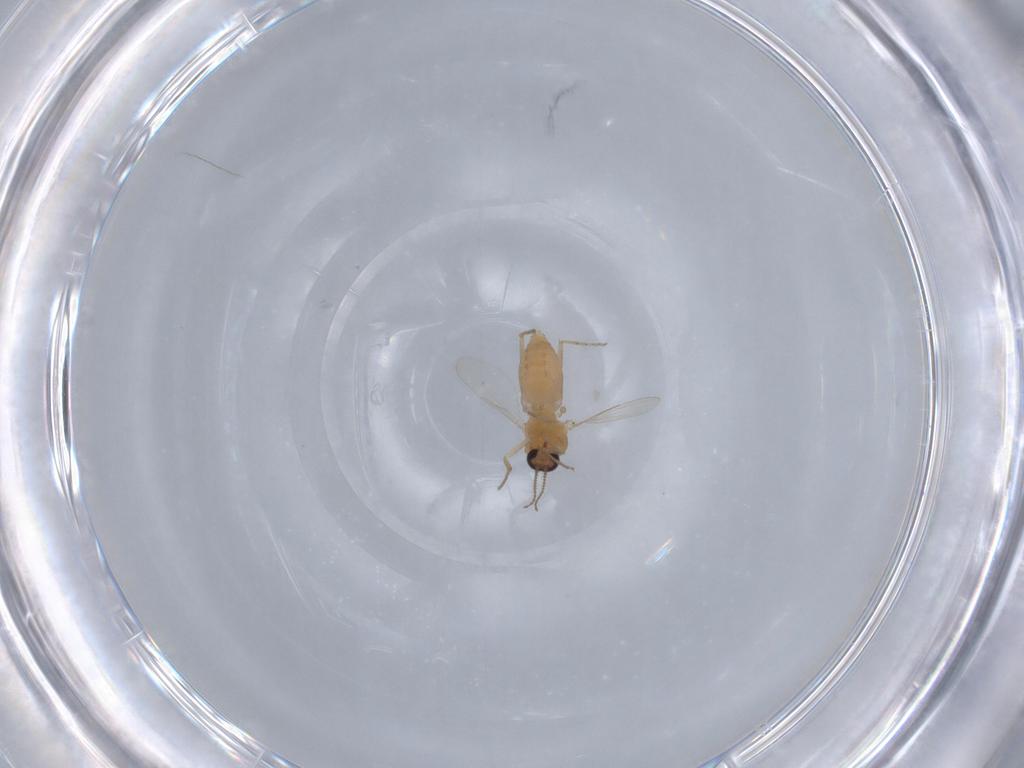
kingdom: Animalia
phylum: Arthropoda
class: Insecta
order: Diptera
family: Ceratopogonidae
